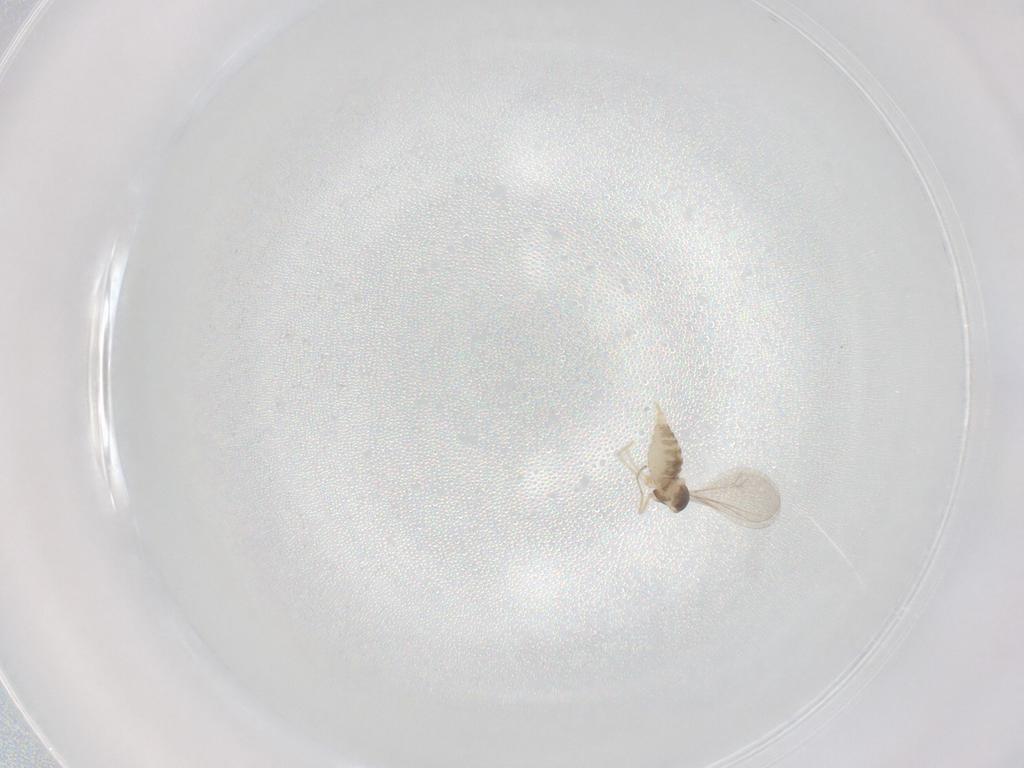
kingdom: Animalia
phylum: Arthropoda
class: Insecta
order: Diptera
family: Cecidomyiidae
